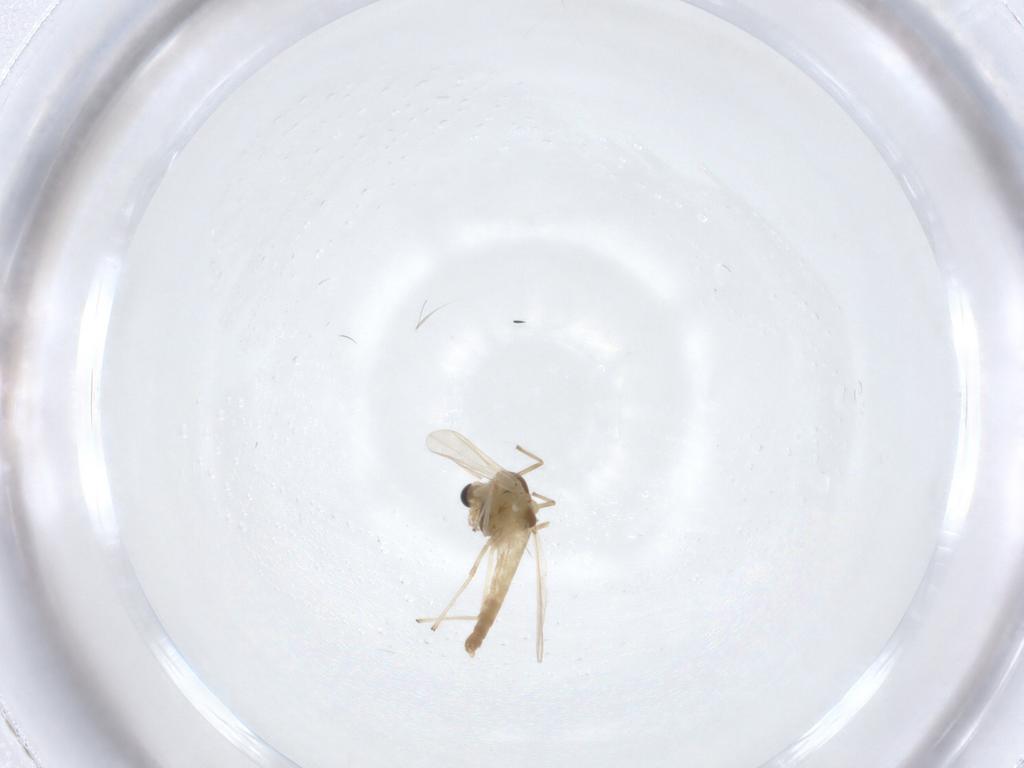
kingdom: Animalia
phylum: Arthropoda
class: Insecta
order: Diptera
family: Chironomidae
